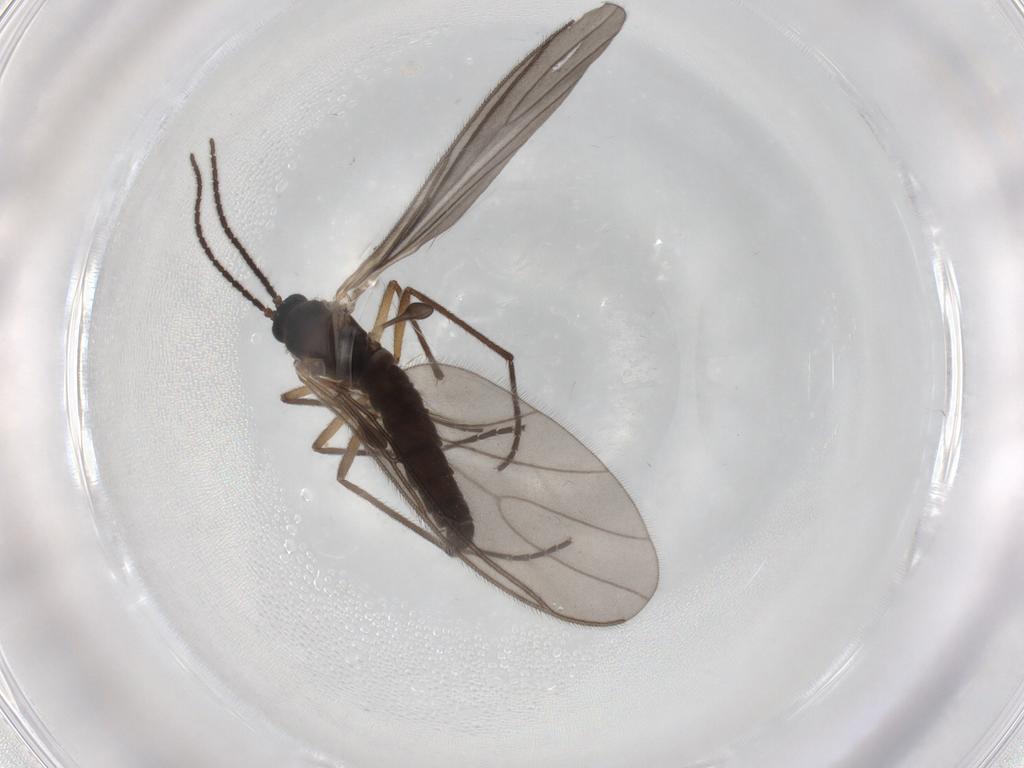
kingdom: Animalia
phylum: Arthropoda
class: Insecta
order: Diptera
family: Sciaridae
